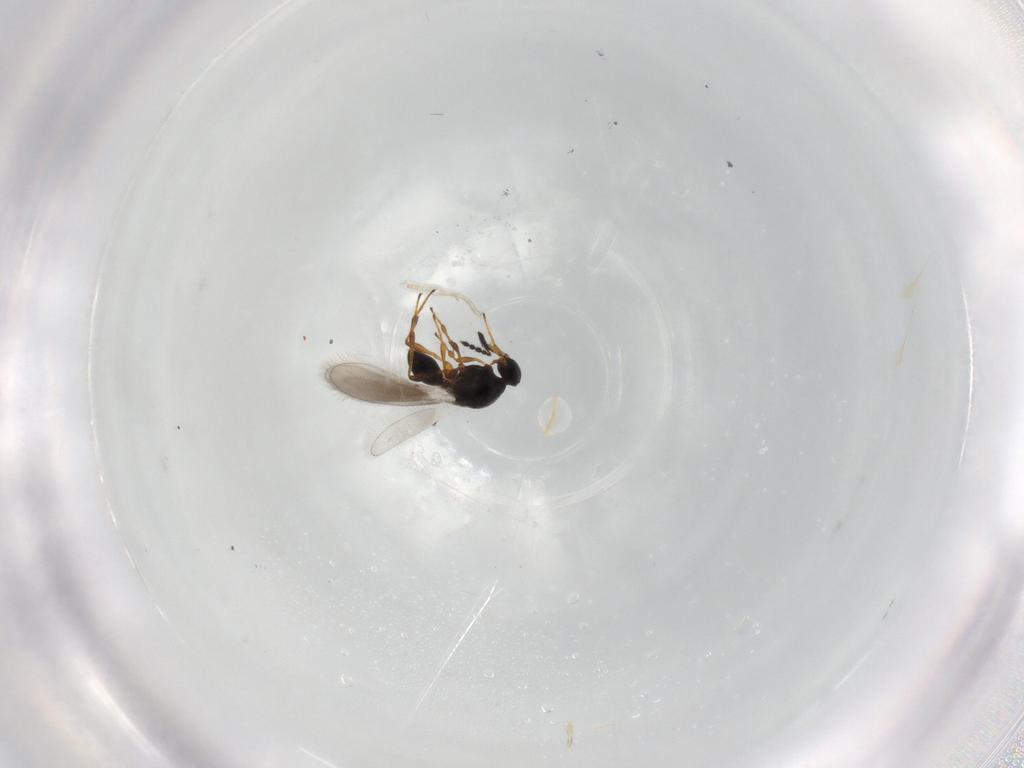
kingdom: Animalia
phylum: Arthropoda
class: Insecta
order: Hymenoptera
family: Platygastridae
